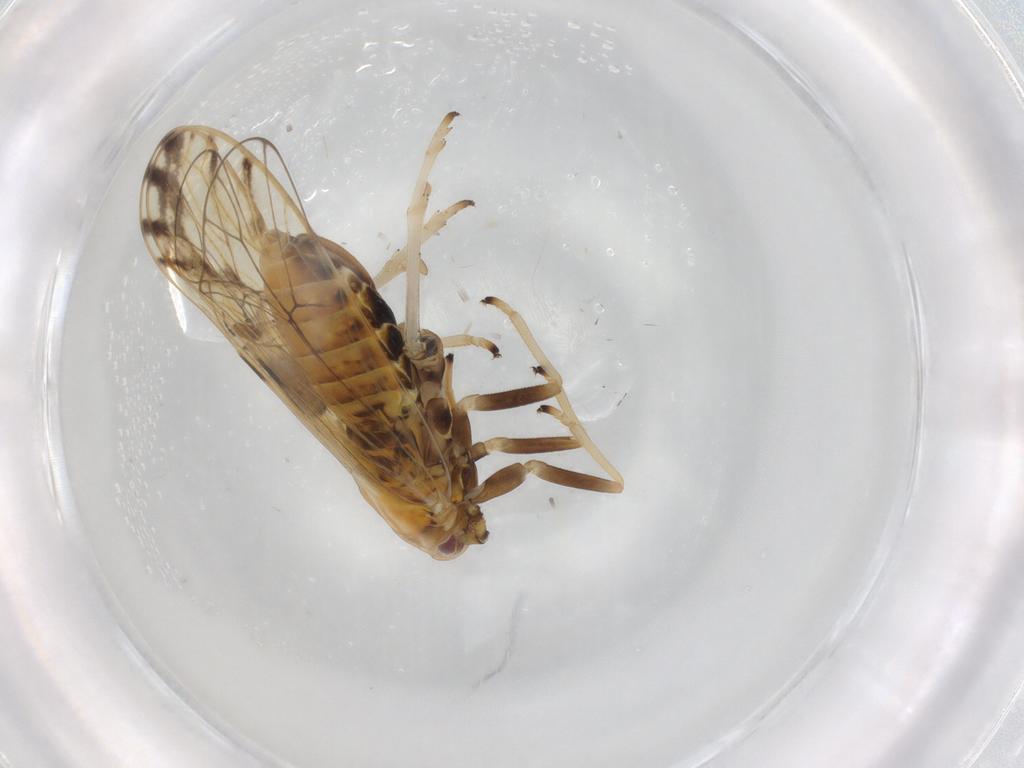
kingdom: Animalia
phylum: Arthropoda
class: Insecta
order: Hemiptera
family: Delphacidae
